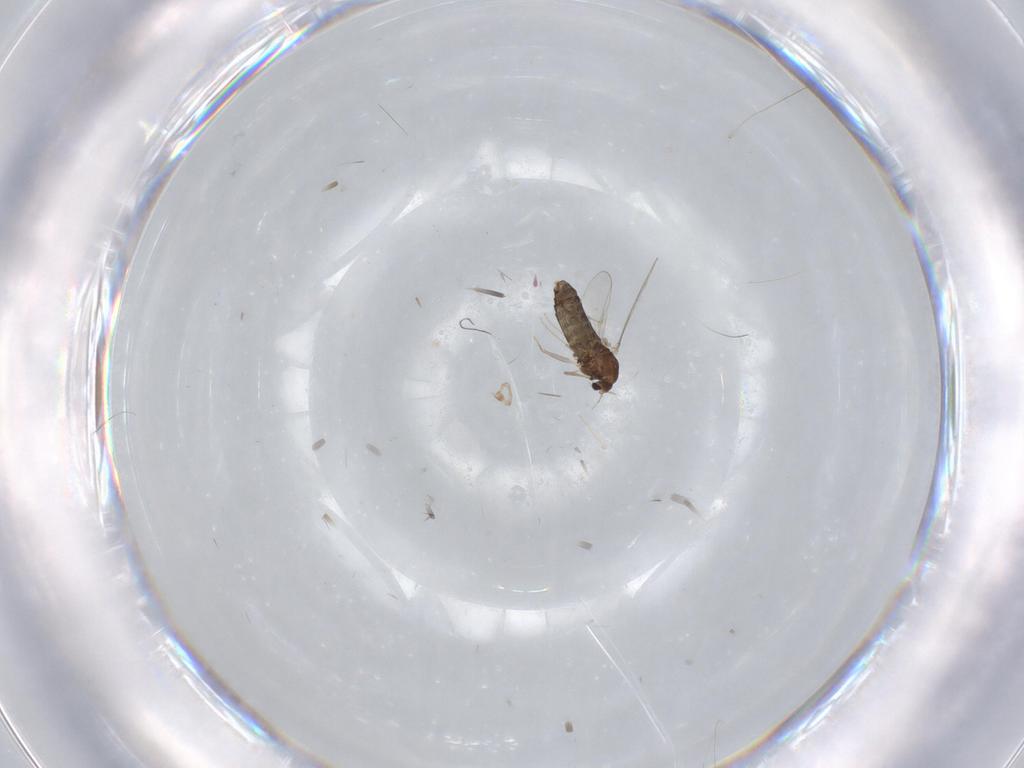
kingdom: Animalia
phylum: Arthropoda
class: Insecta
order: Diptera
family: Chironomidae
